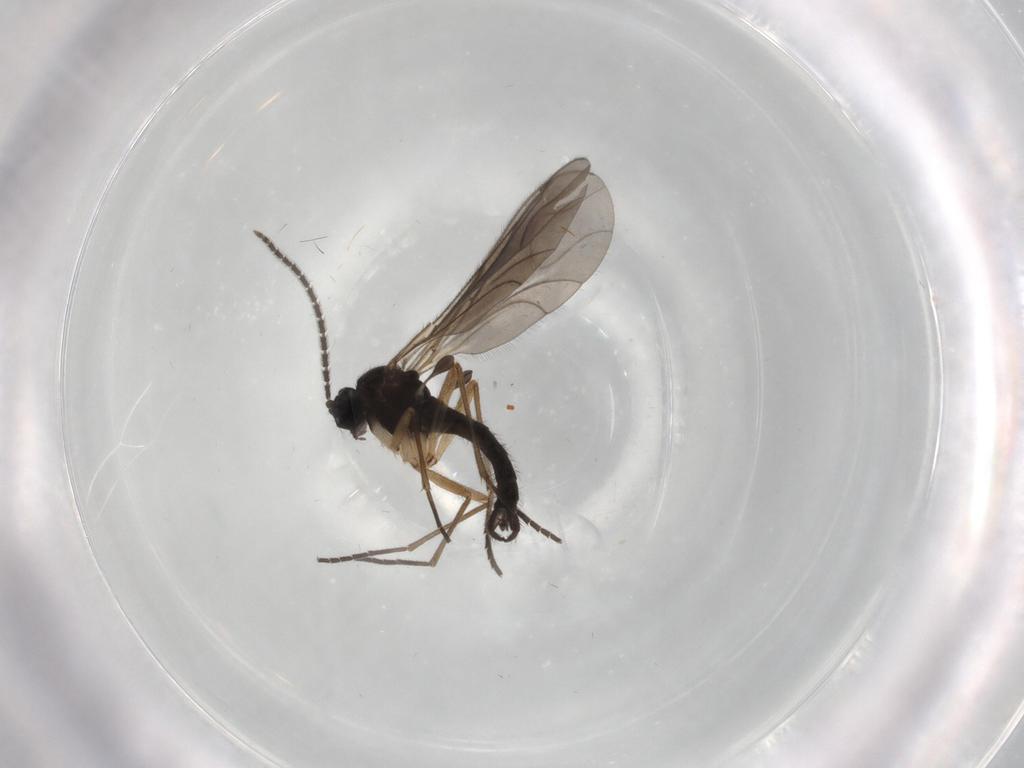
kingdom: Animalia
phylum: Arthropoda
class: Insecta
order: Diptera
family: Sciaridae
